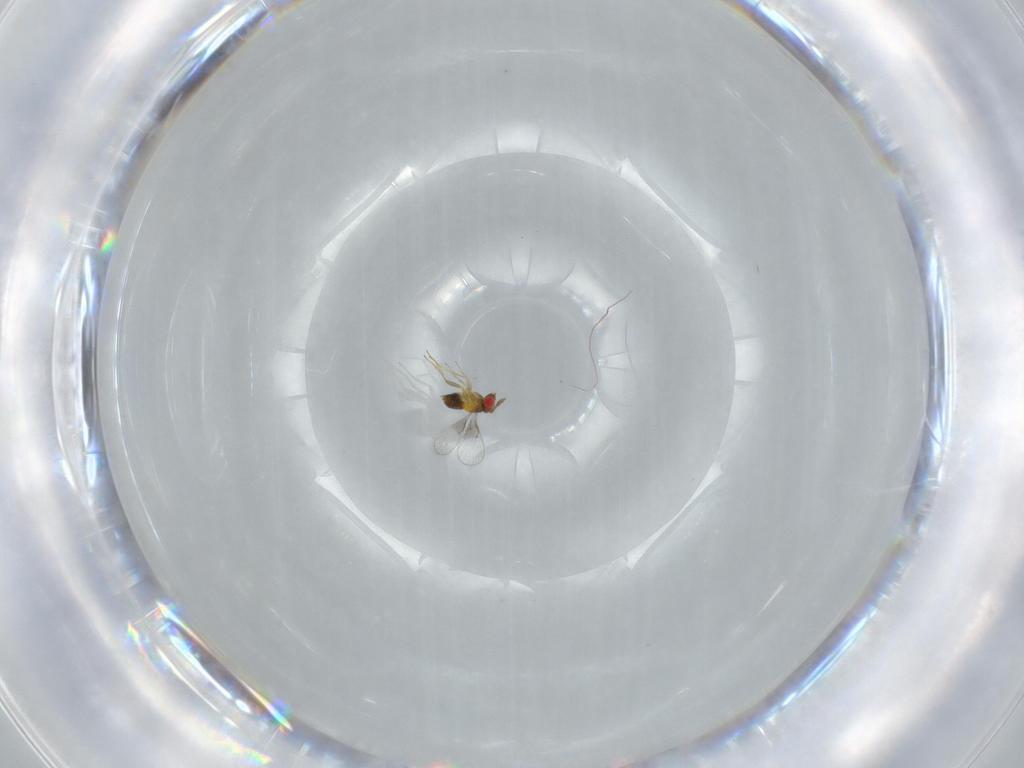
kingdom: Animalia
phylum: Arthropoda
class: Insecta
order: Hymenoptera
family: Trichogrammatidae
